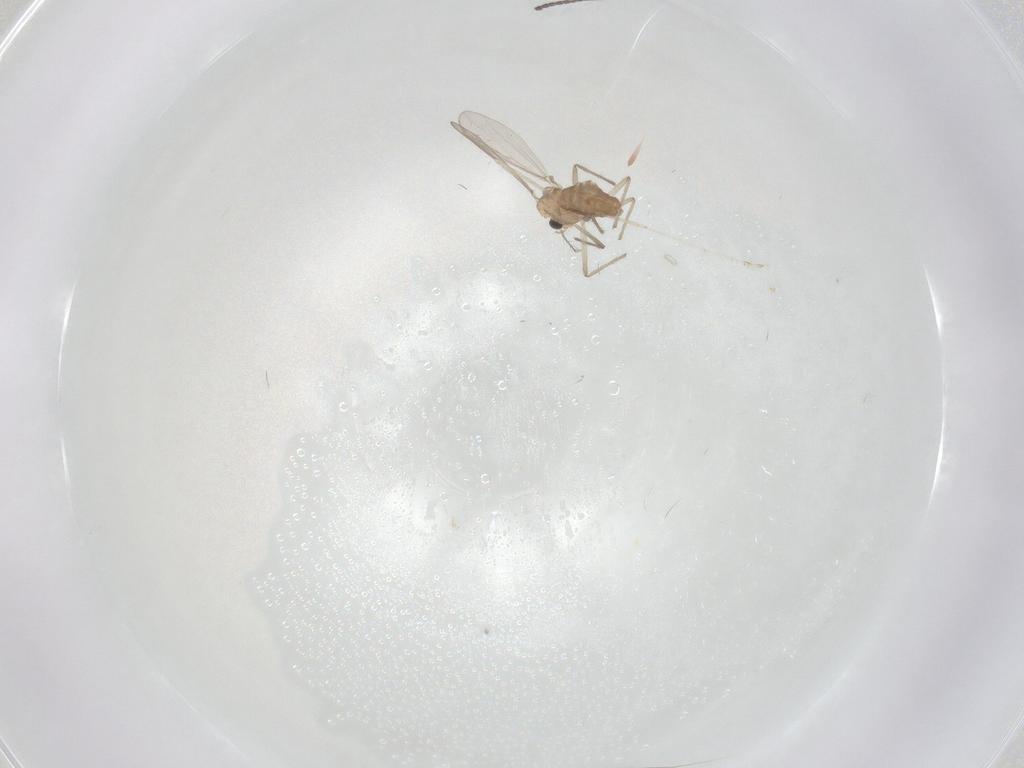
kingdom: Animalia
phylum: Arthropoda
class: Insecta
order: Diptera
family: Chironomidae
